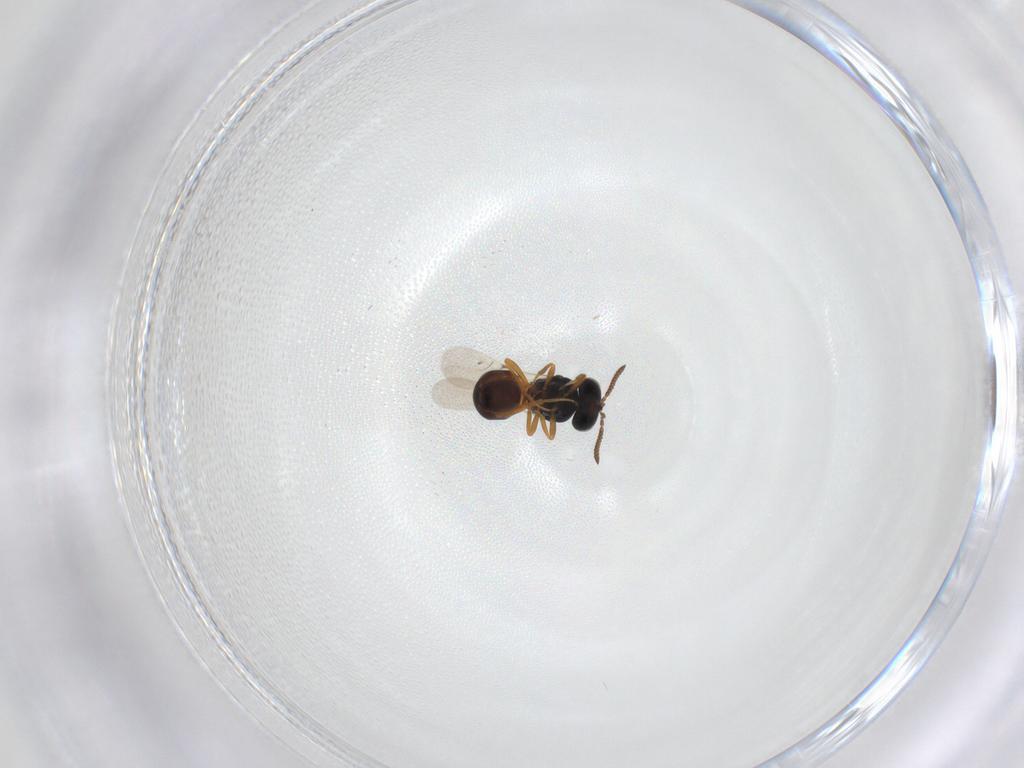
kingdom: Animalia
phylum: Arthropoda
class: Insecta
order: Hymenoptera
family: Scelionidae
